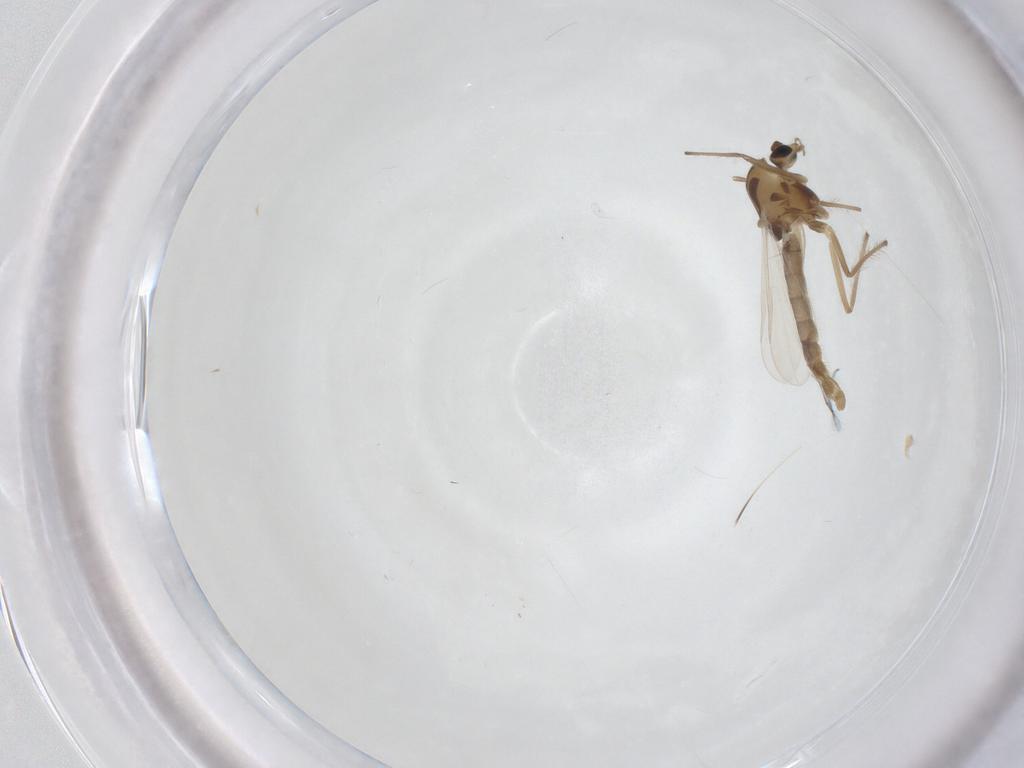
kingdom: Animalia
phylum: Arthropoda
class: Insecta
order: Diptera
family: Chironomidae
